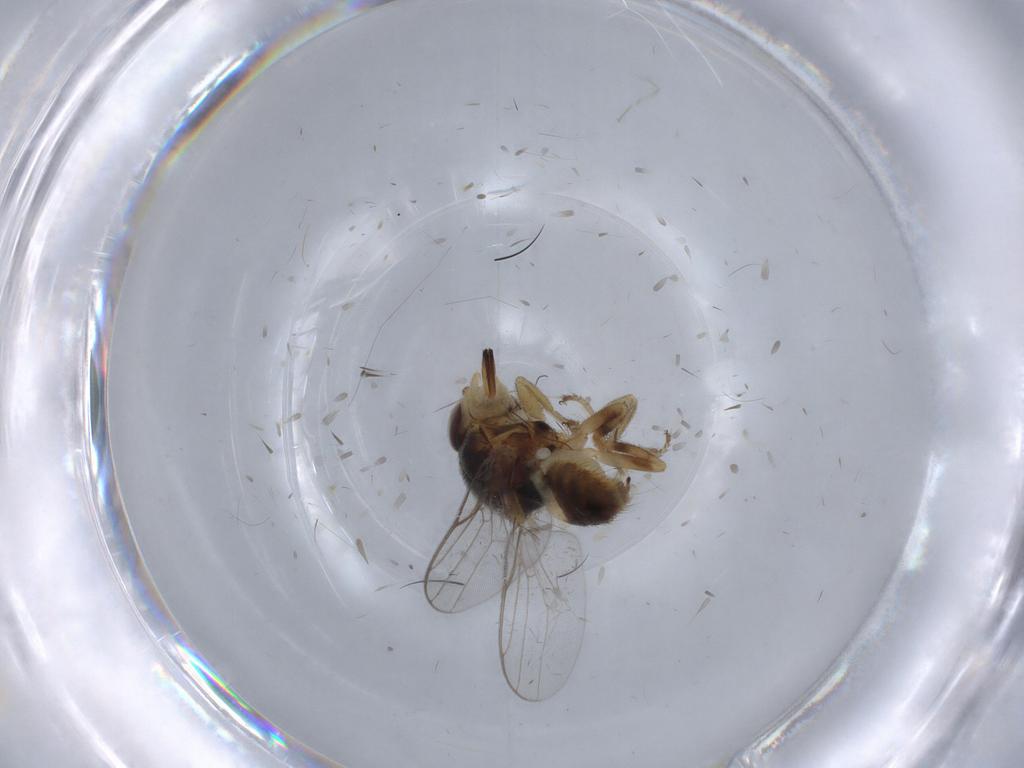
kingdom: Animalia
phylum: Arthropoda
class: Insecta
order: Diptera
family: Chloropidae
